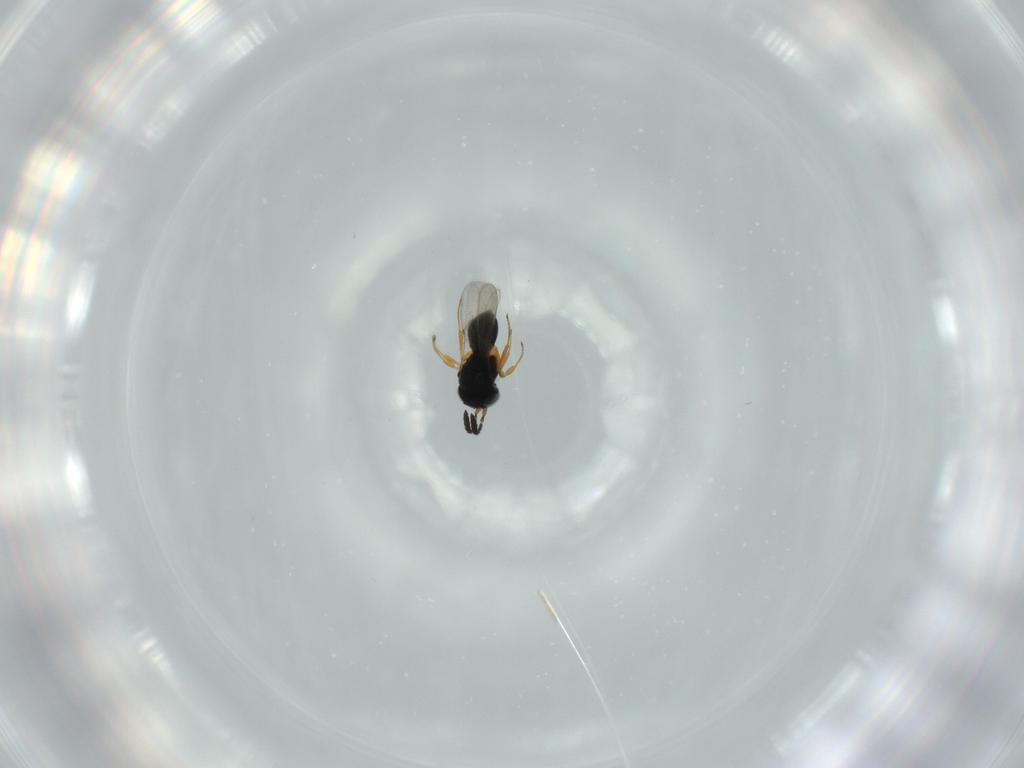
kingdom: Animalia
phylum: Arthropoda
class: Insecta
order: Hymenoptera
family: Scelionidae
